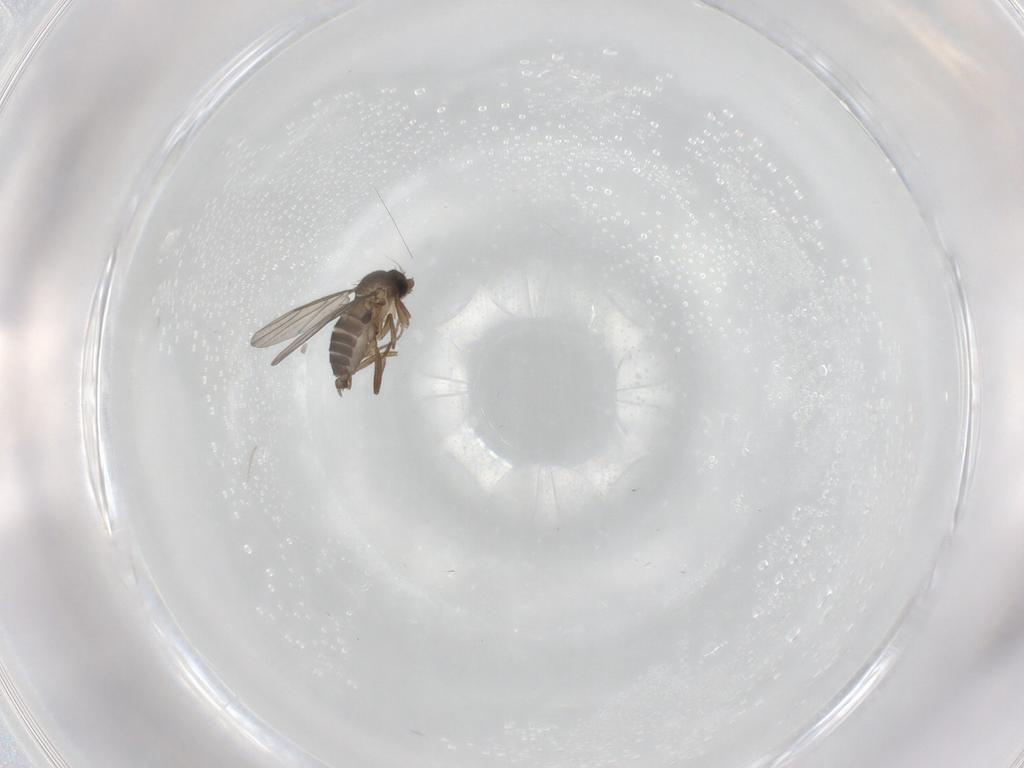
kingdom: Animalia
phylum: Arthropoda
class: Insecta
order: Diptera
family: Phoridae
